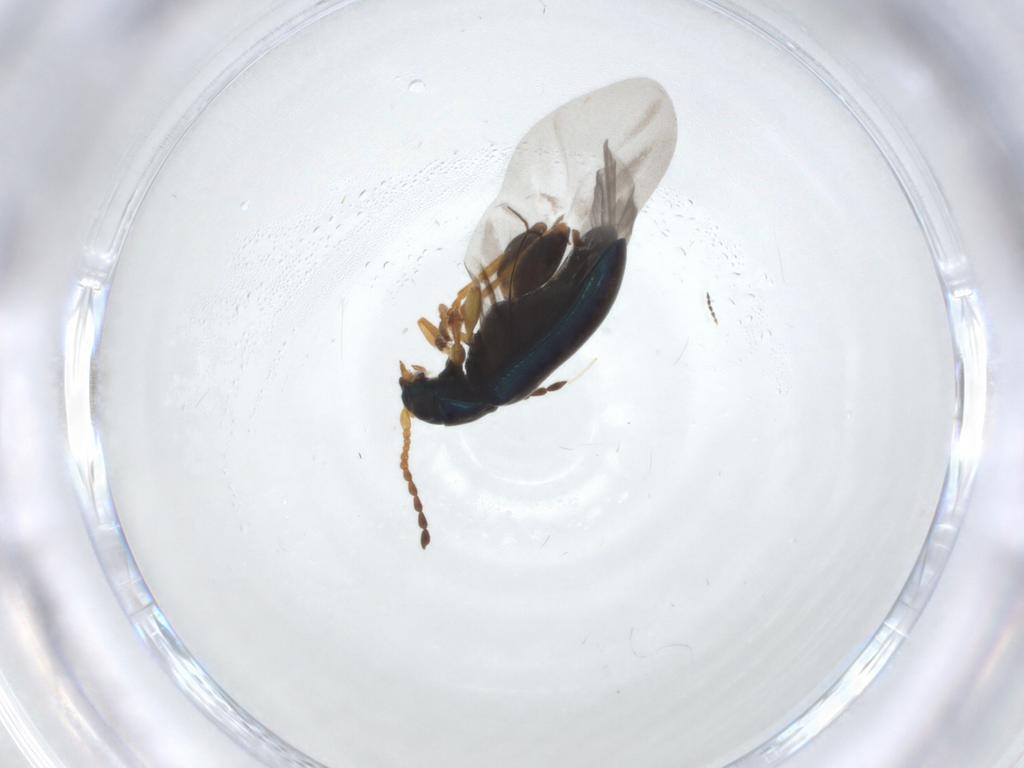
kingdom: Animalia
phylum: Arthropoda
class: Insecta
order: Coleoptera
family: Chrysomelidae
